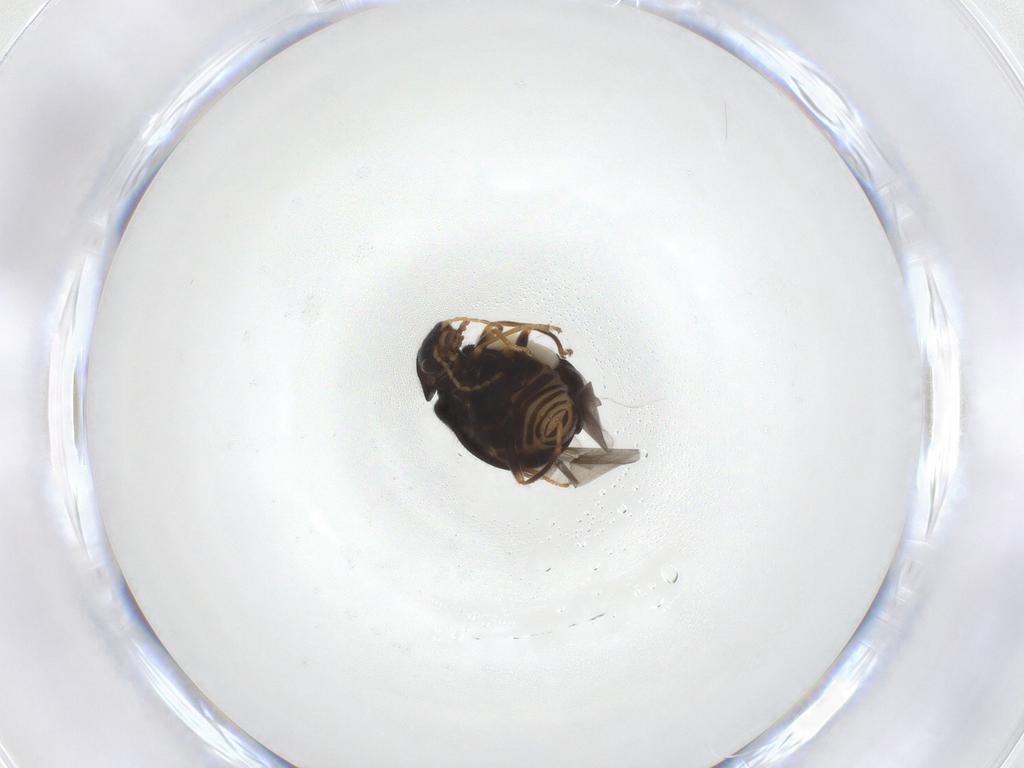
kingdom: Animalia
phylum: Arthropoda
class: Insecta
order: Coleoptera
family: Melyridae
